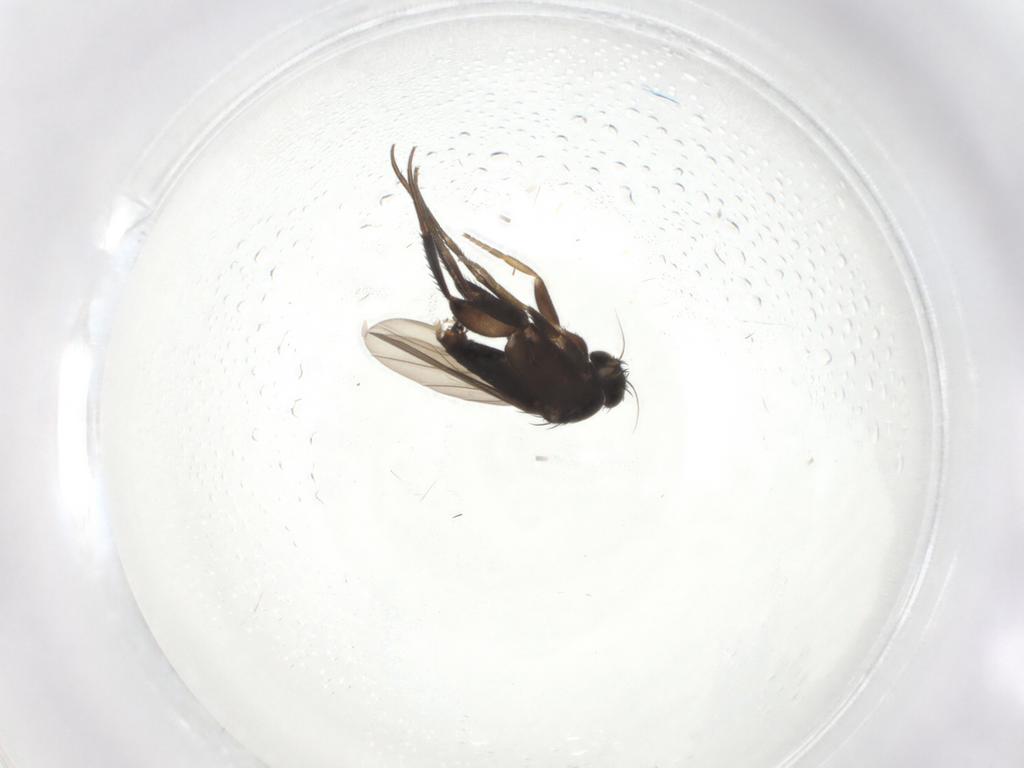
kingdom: Animalia
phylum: Arthropoda
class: Insecta
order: Diptera
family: Phoridae
